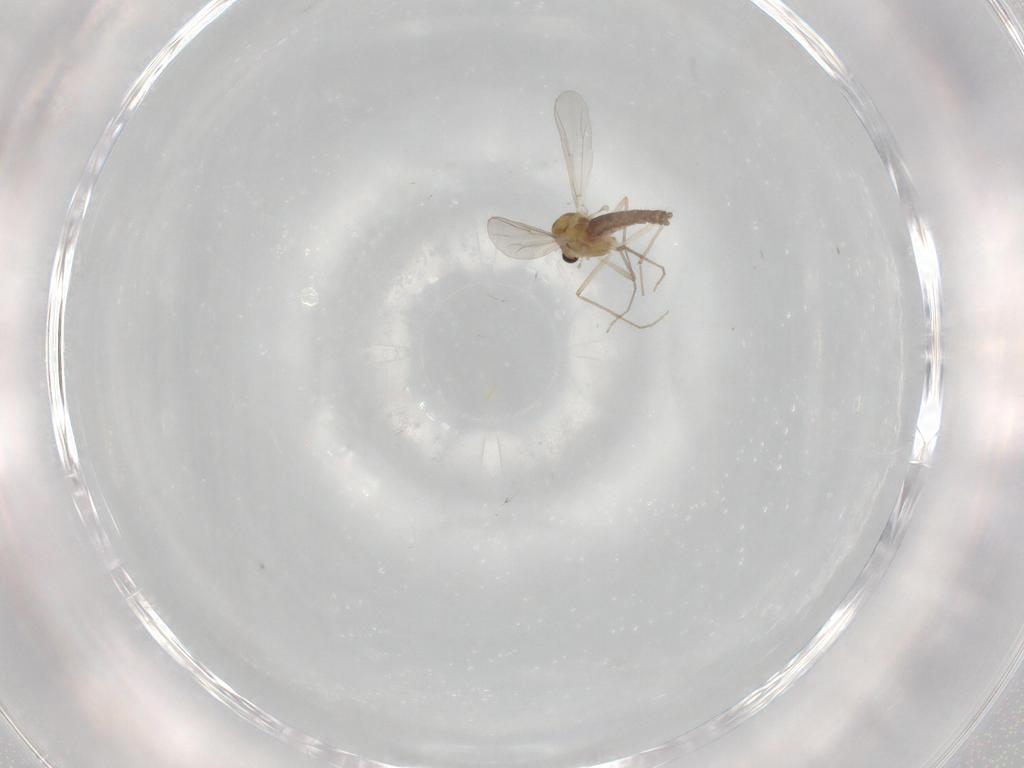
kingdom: Animalia
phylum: Arthropoda
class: Insecta
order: Diptera
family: Chironomidae
